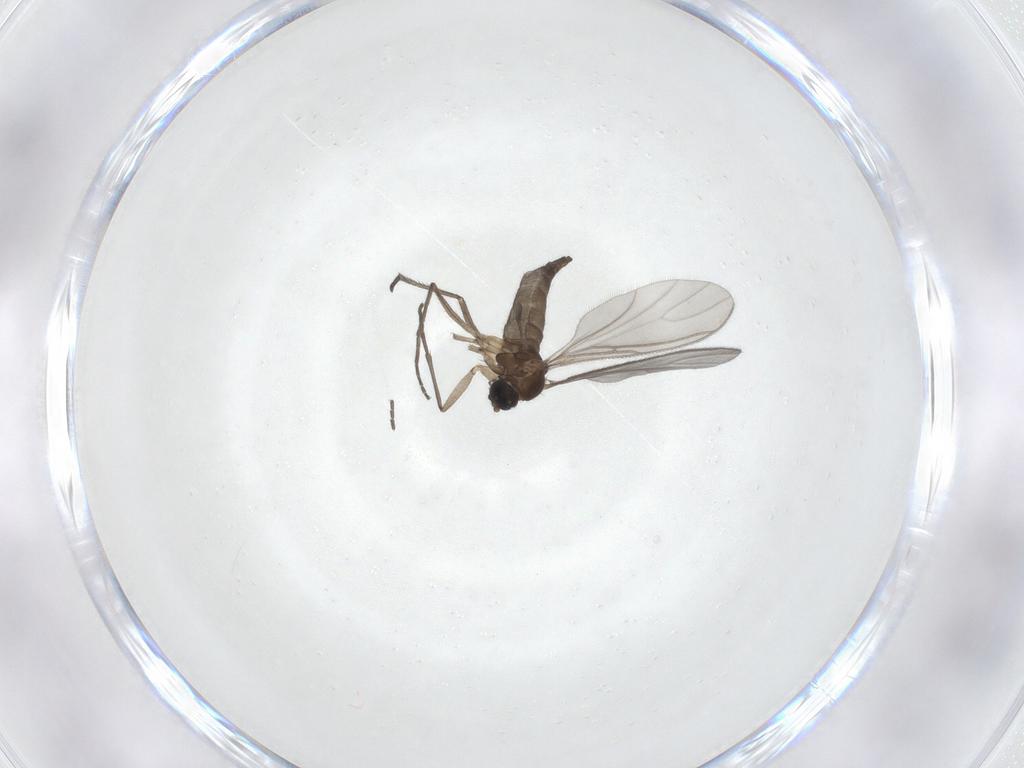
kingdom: Animalia
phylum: Arthropoda
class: Insecta
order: Diptera
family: Sciaridae
